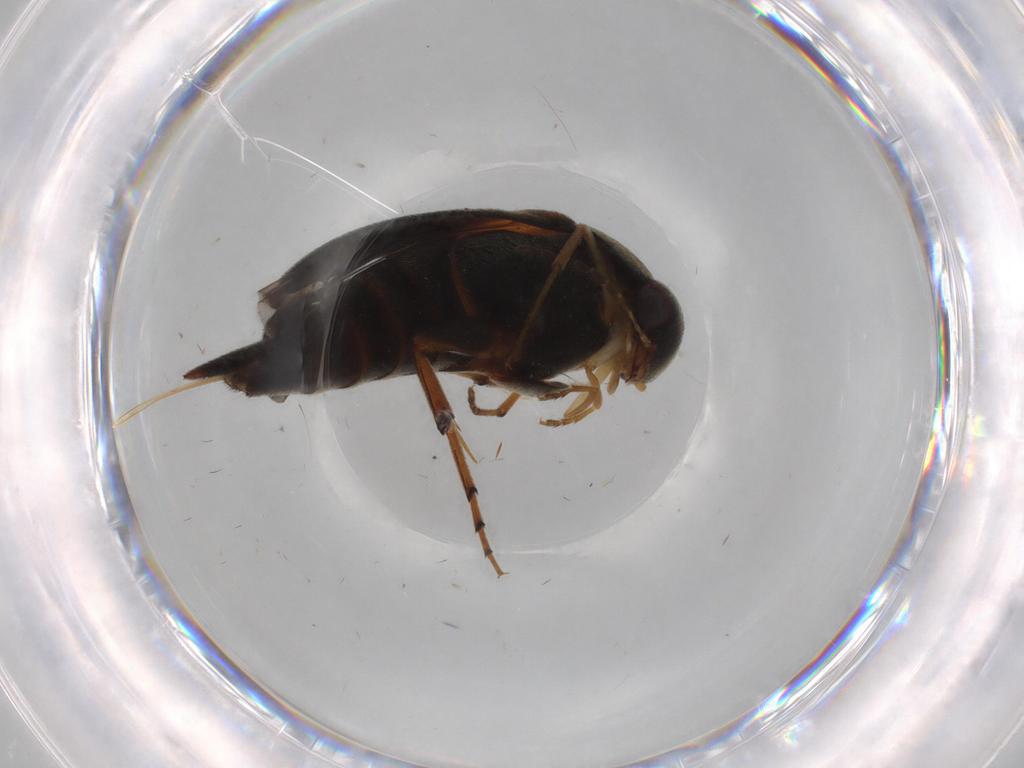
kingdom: Animalia
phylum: Arthropoda
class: Insecta
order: Coleoptera
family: Mordellidae
